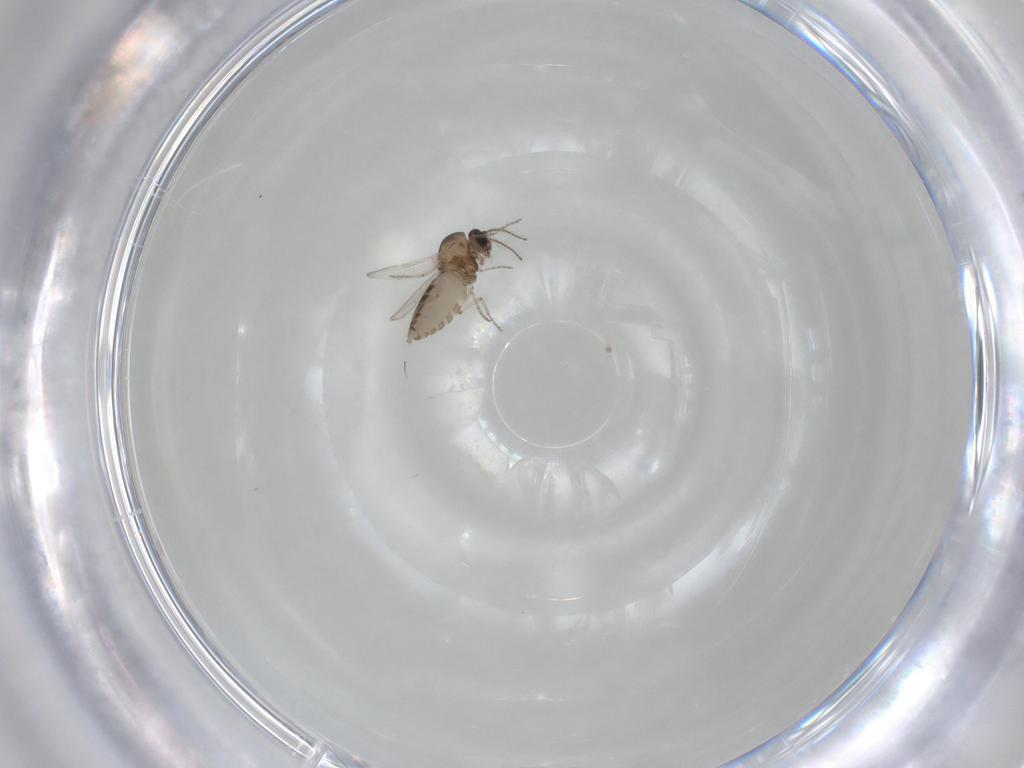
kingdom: Animalia
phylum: Arthropoda
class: Insecta
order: Diptera
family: Ceratopogonidae
